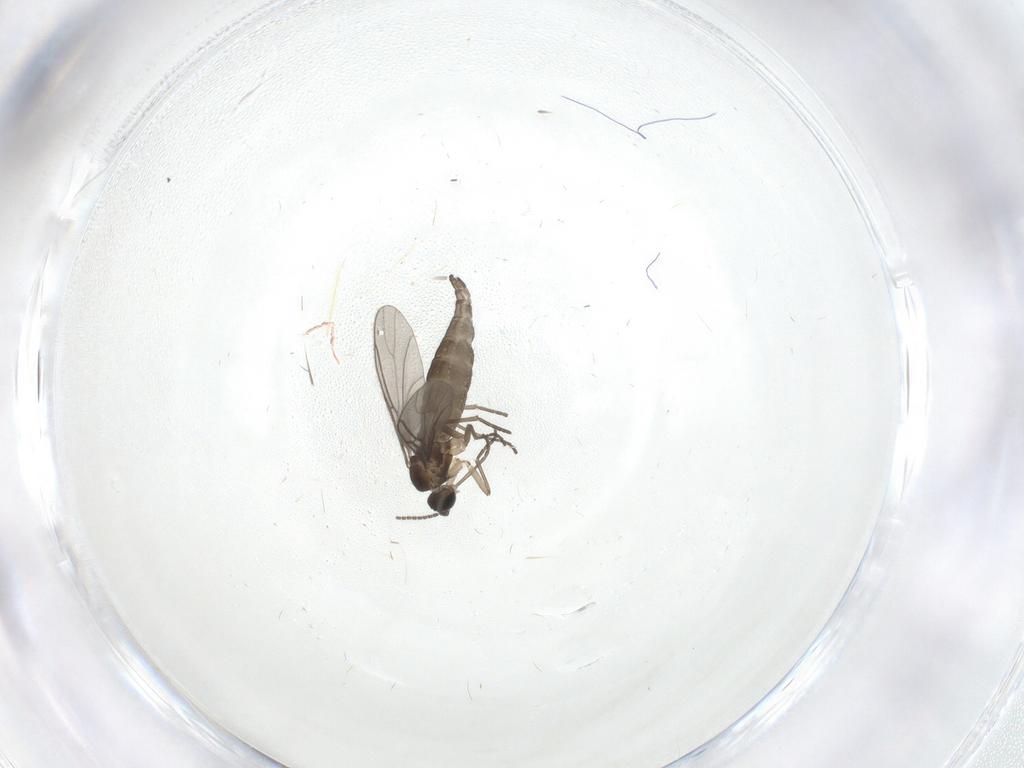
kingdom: Animalia
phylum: Arthropoda
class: Insecta
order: Diptera
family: Sciaridae
